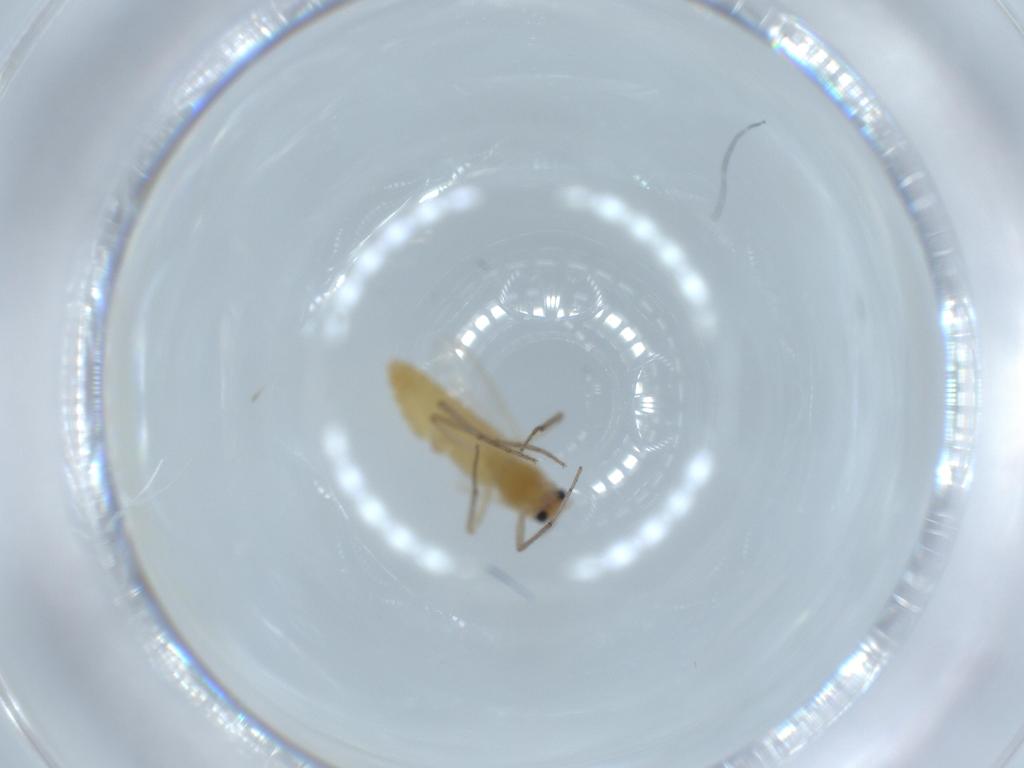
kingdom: Animalia
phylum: Arthropoda
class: Insecta
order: Diptera
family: Chironomidae
